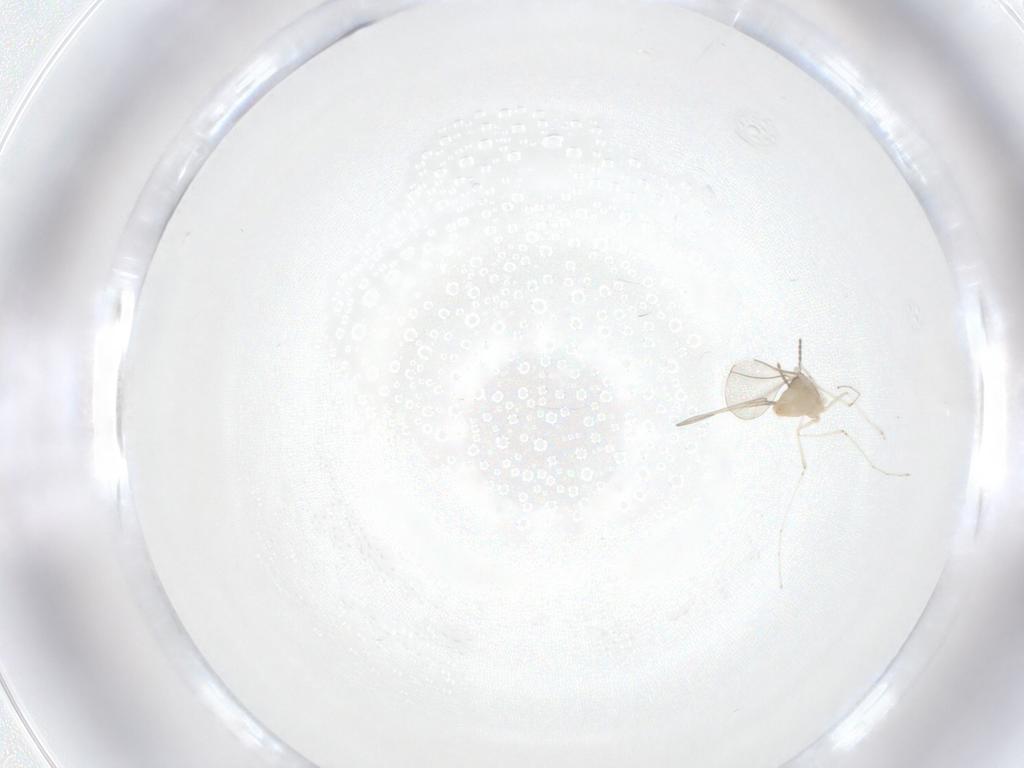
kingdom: Animalia
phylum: Arthropoda
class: Insecta
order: Diptera
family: Cecidomyiidae
